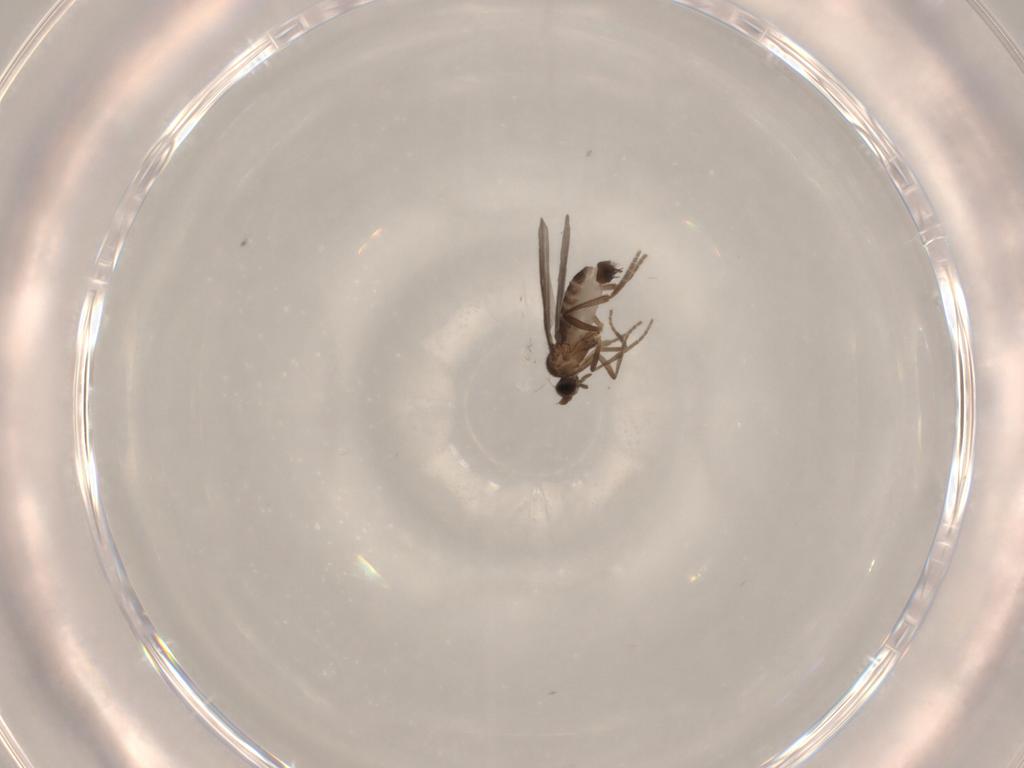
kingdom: Animalia
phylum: Arthropoda
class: Insecta
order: Diptera
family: Phoridae
